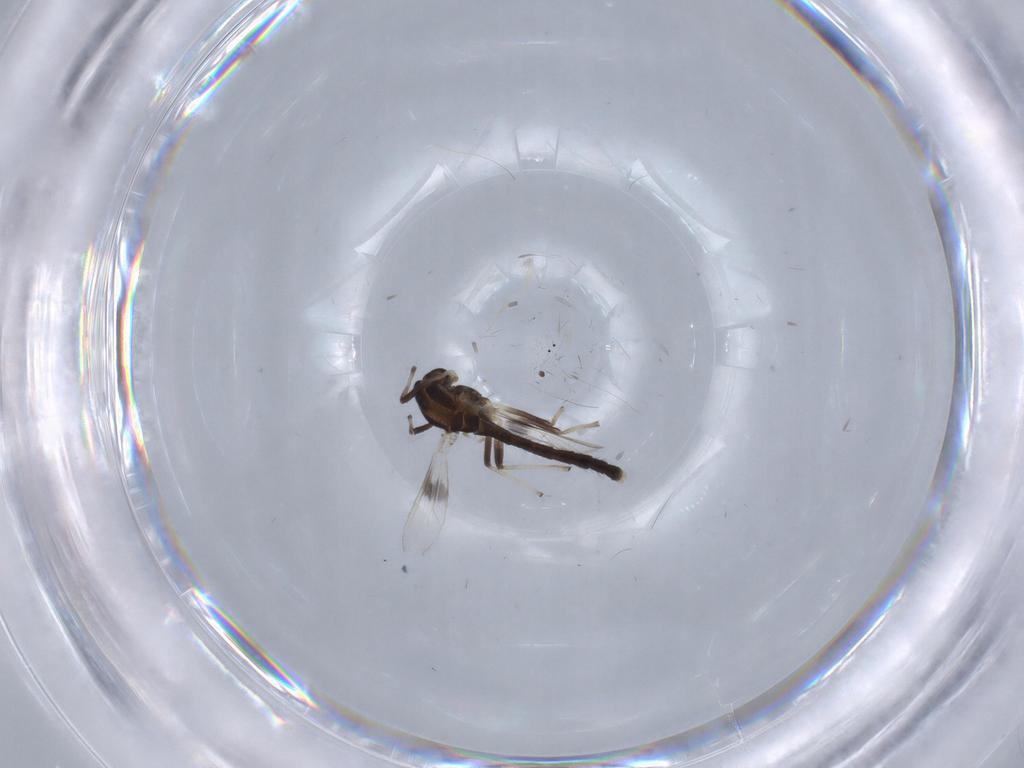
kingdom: Animalia
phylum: Arthropoda
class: Insecta
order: Diptera
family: Chironomidae
